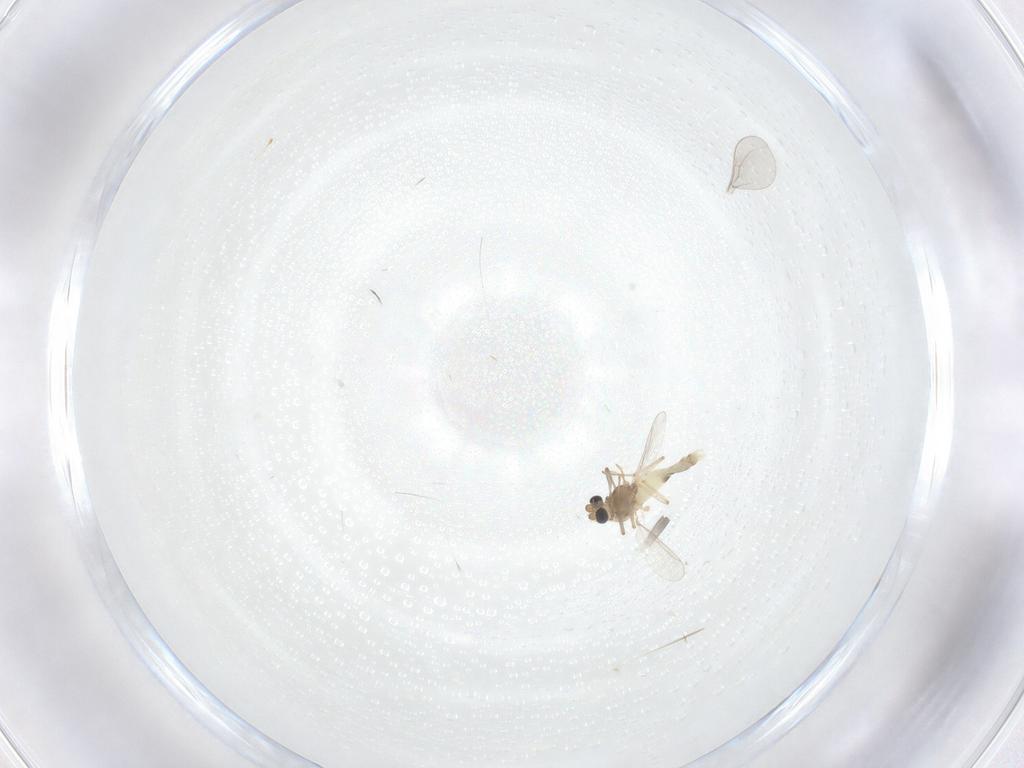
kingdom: Animalia
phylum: Arthropoda
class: Insecta
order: Diptera
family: Chironomidae
